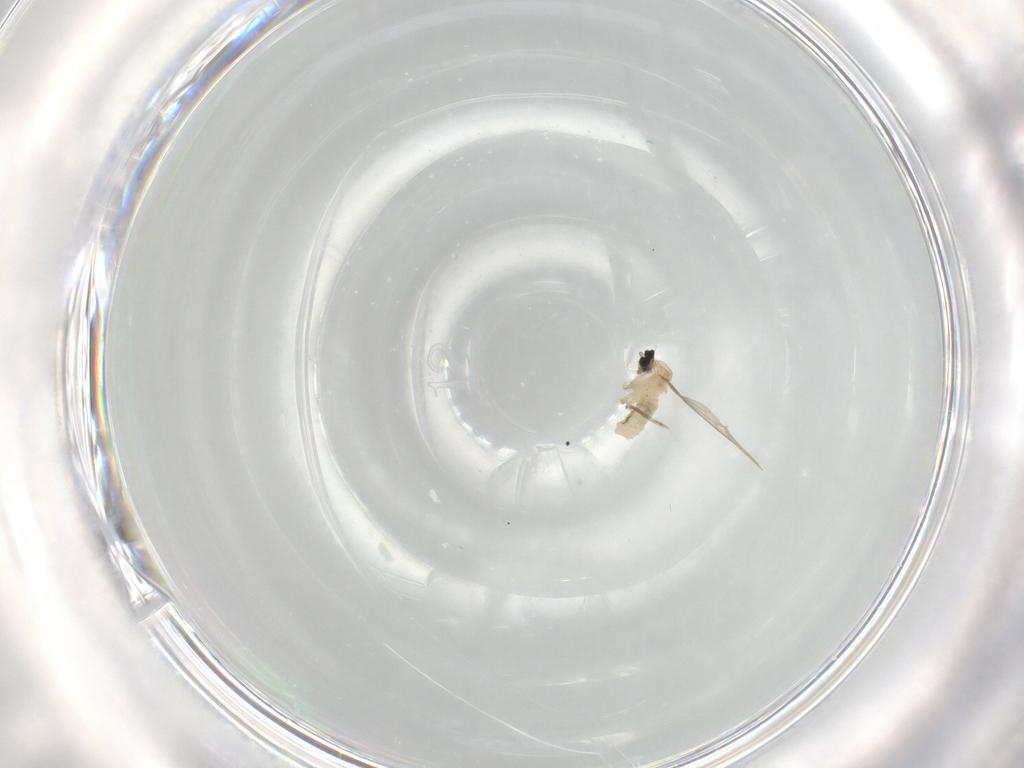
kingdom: Animalia
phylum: Arthropoda
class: Insecta
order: Diptera
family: Cecidomyiidae
